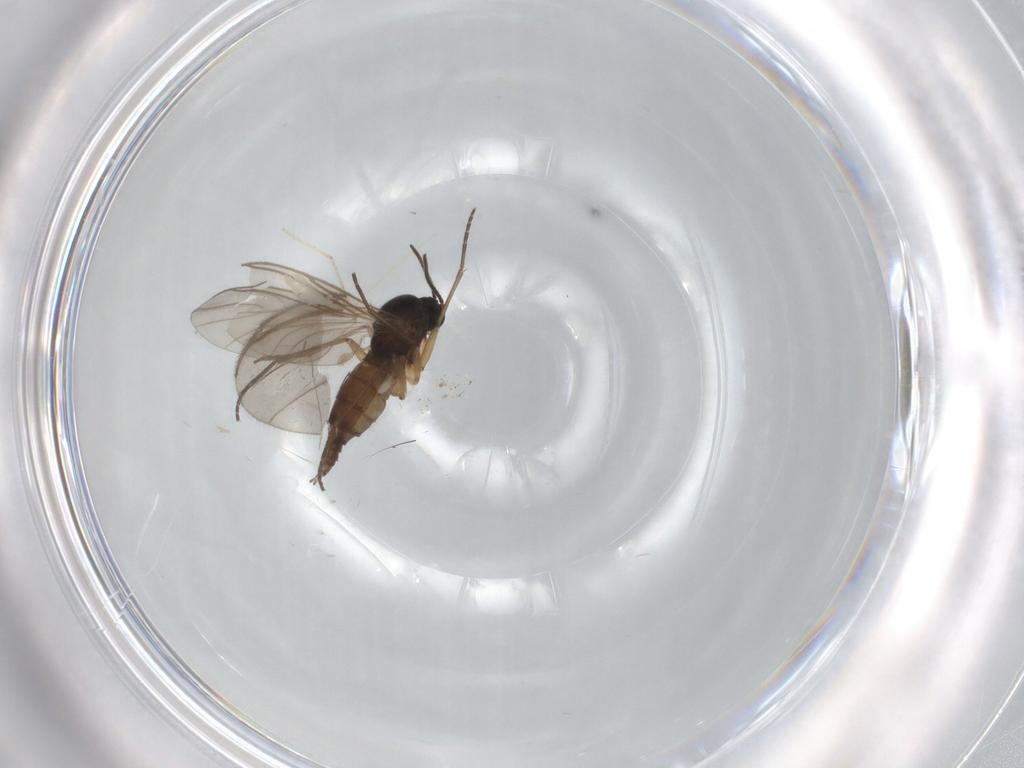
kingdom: Animalia
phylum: Arthropoda
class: Insecta
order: Diptera
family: Sciaridae
